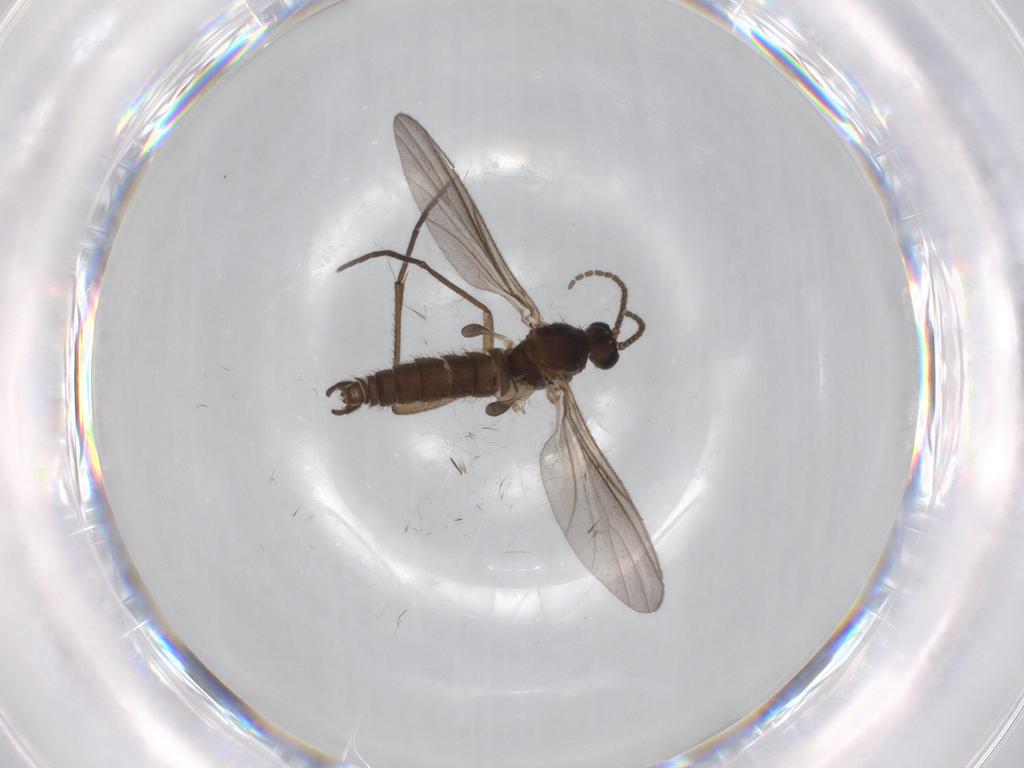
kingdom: Animalia
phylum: Arthropoda
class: Insecta
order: Diptera
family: Sciaridae
